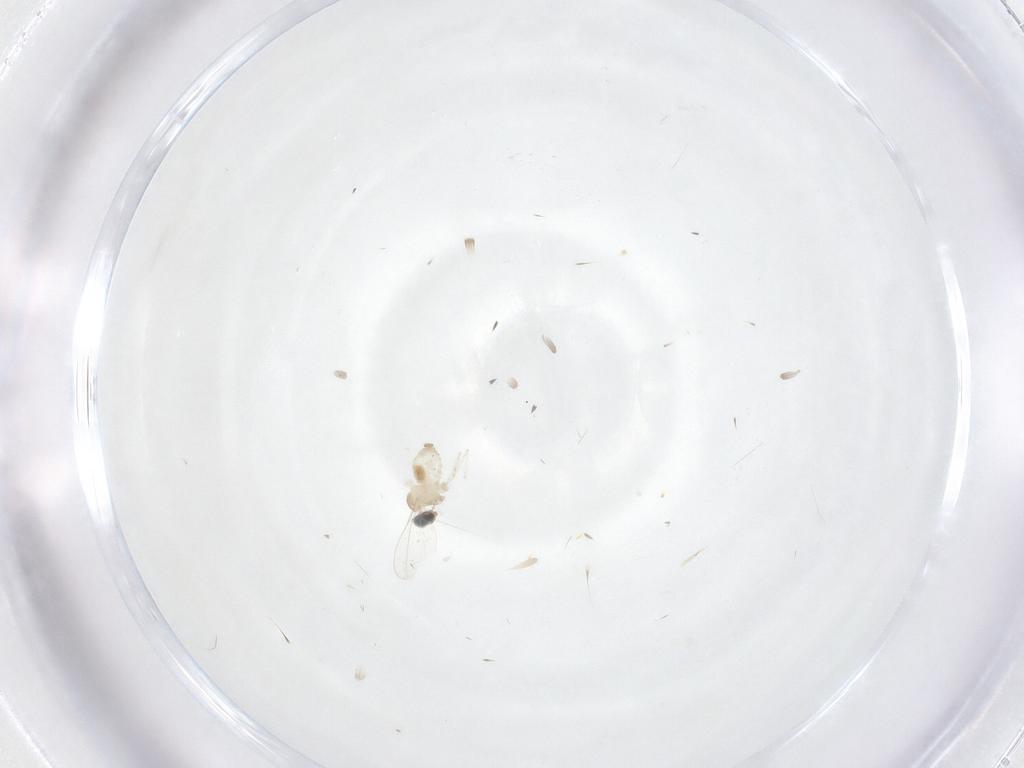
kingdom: Animalia
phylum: Arthropoda
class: Insecta
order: Diptera
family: Cecidomyiidae
